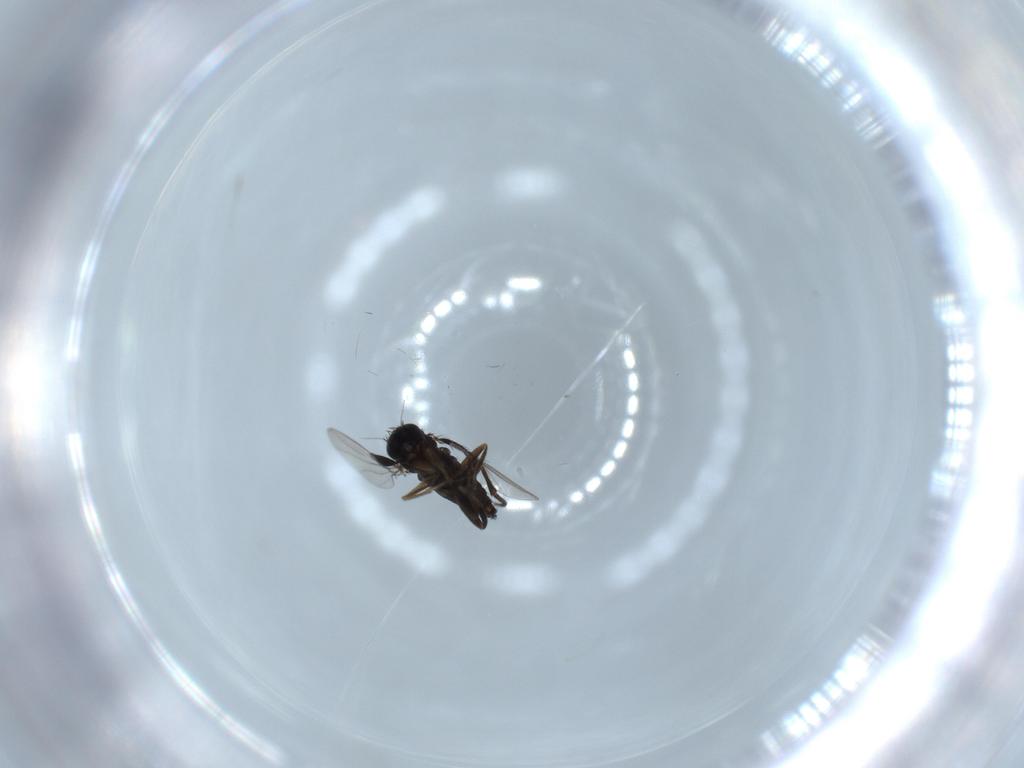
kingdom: Animalia
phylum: Arthropoda
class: Insecta
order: Diptera
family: Phoridae
